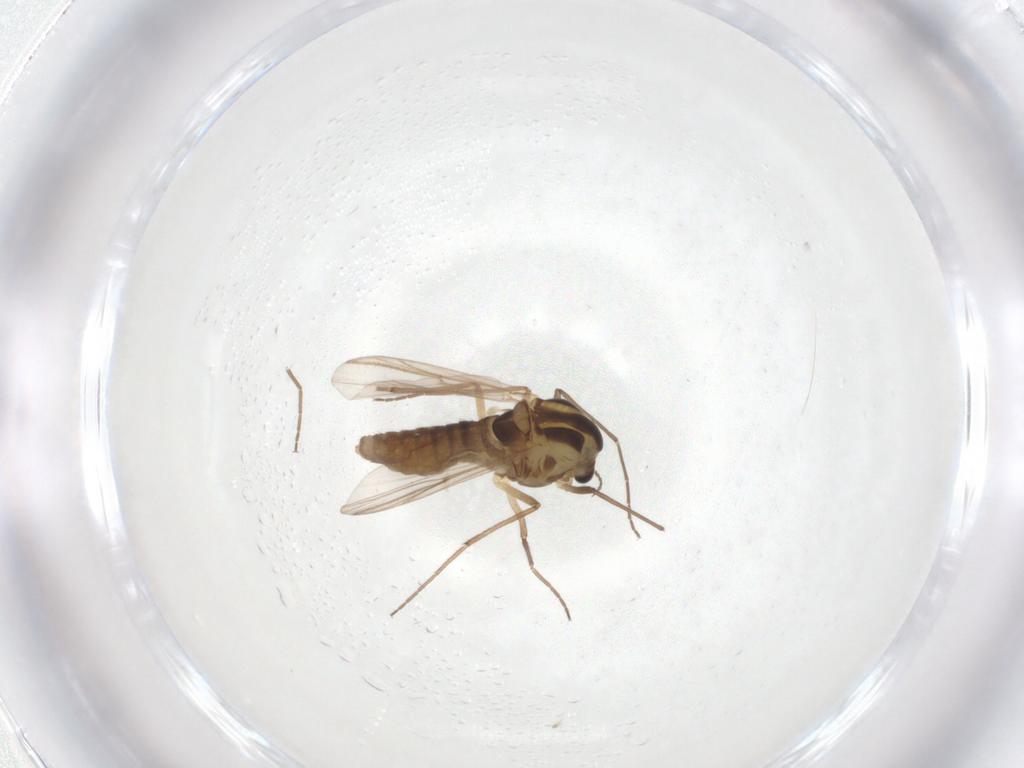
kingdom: Animalia
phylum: Arthropoda
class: Insecta
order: Diptera
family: Chironomidae
